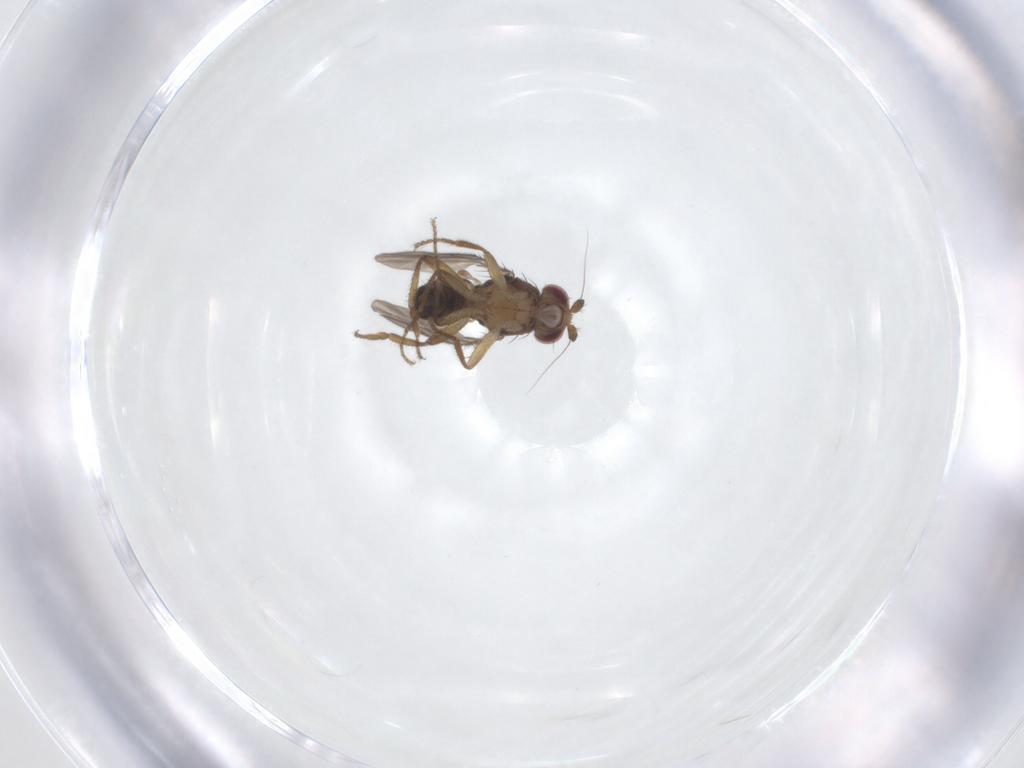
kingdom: Animalia
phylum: Arthropoda
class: Insecta
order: Diptera
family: Sphaeroceridae
